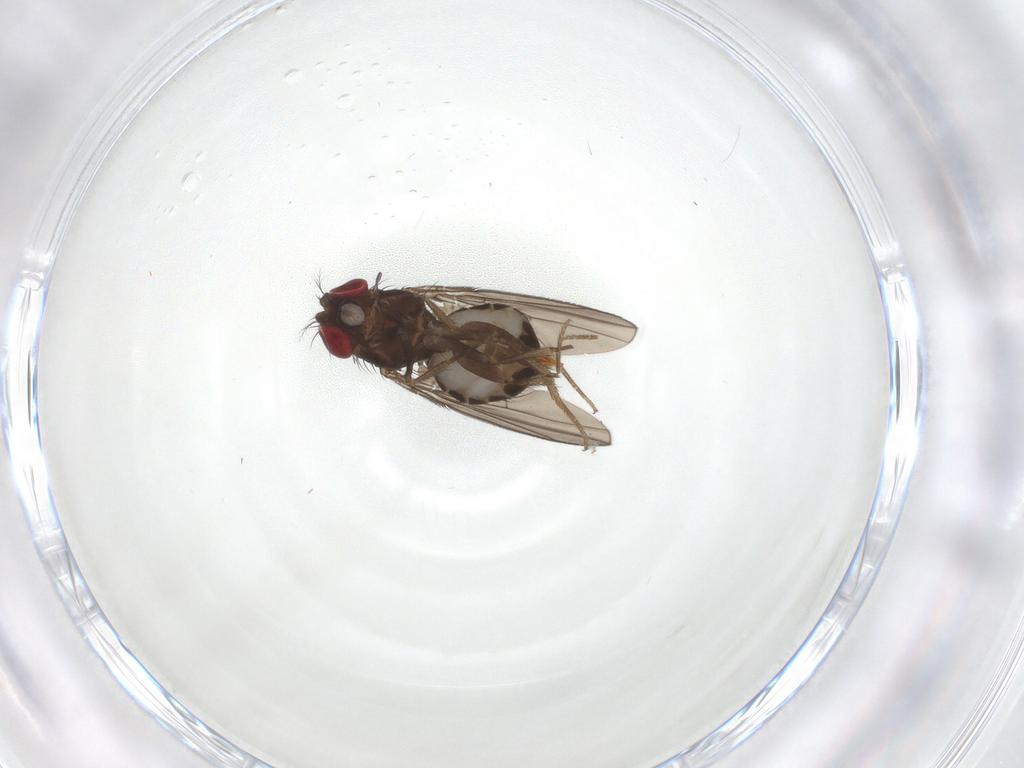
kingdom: Animalia
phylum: Arthropoda
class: Insecta
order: Diptera
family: Drosophilidae
